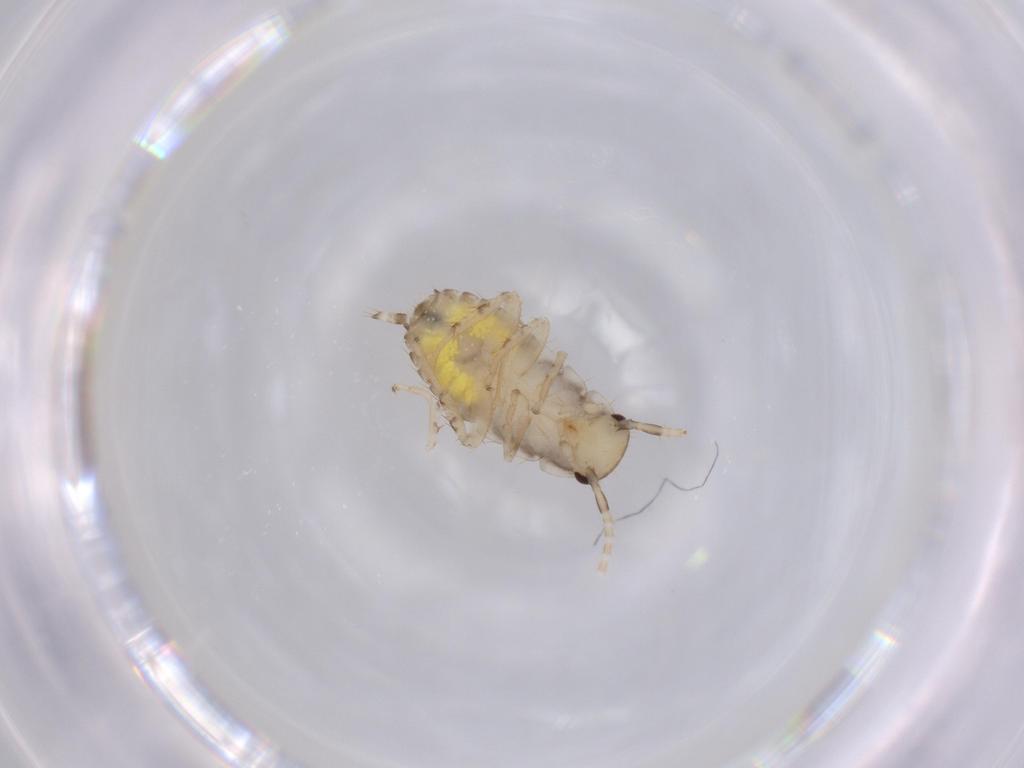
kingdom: Animalia
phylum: Arthropoda
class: Insecta
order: Blattodea
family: Ectobiidae
